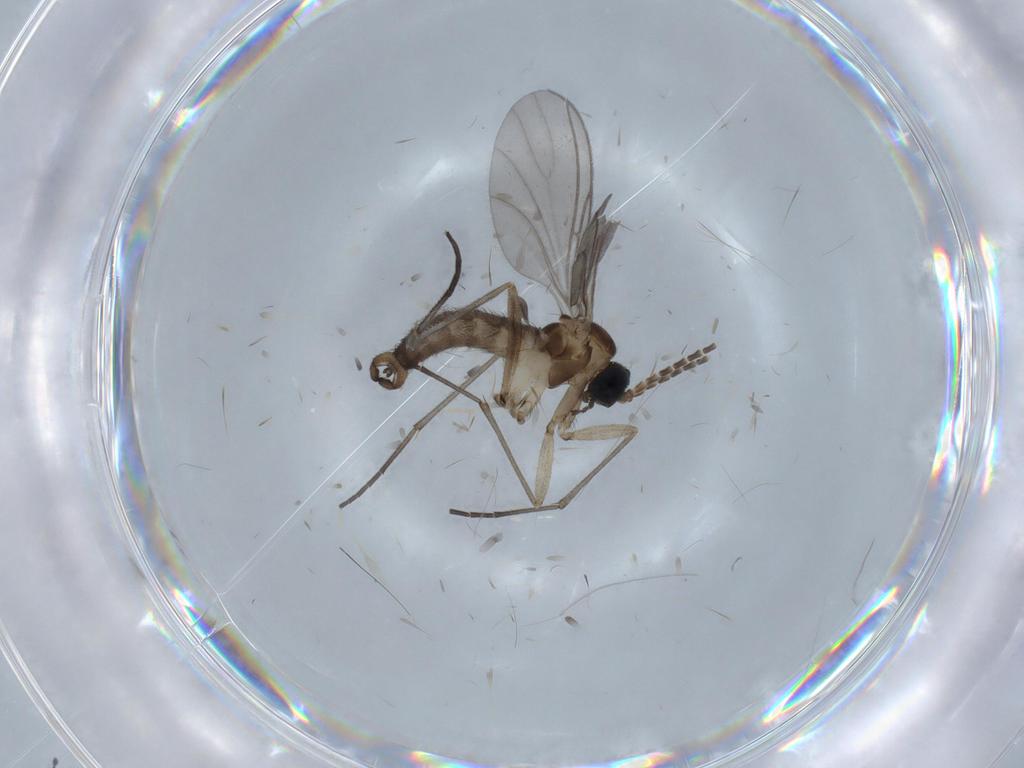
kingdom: Animalia
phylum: Arthropoda
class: Insecta
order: Diptera
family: Sciaridae
